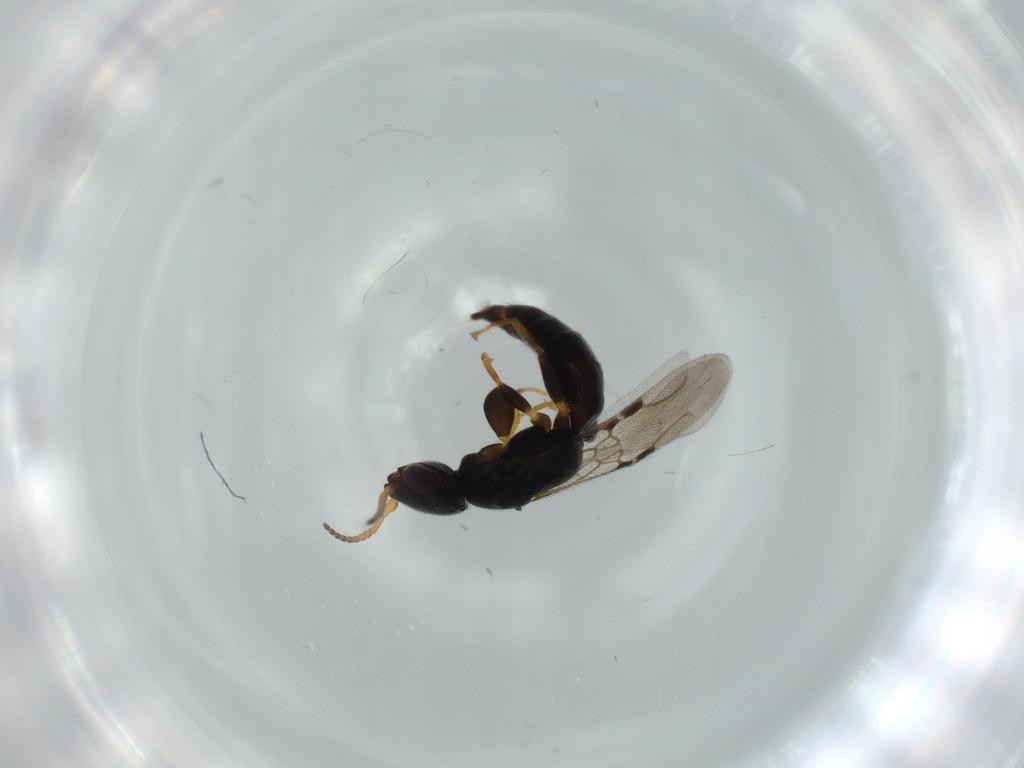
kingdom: Animalia
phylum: Arthropoda
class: Insecta
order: Hymenoptera
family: Bethylidae
